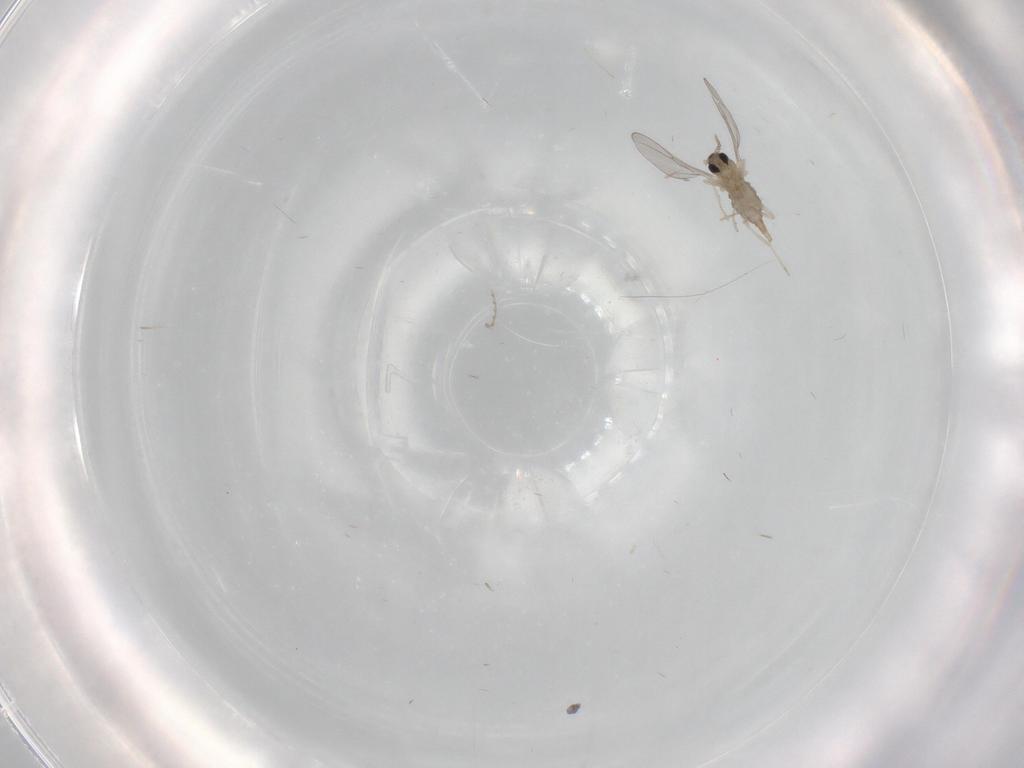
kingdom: Animalia
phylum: Arthropoda
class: Insecta
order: Diptera
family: Cecidomyiidae
